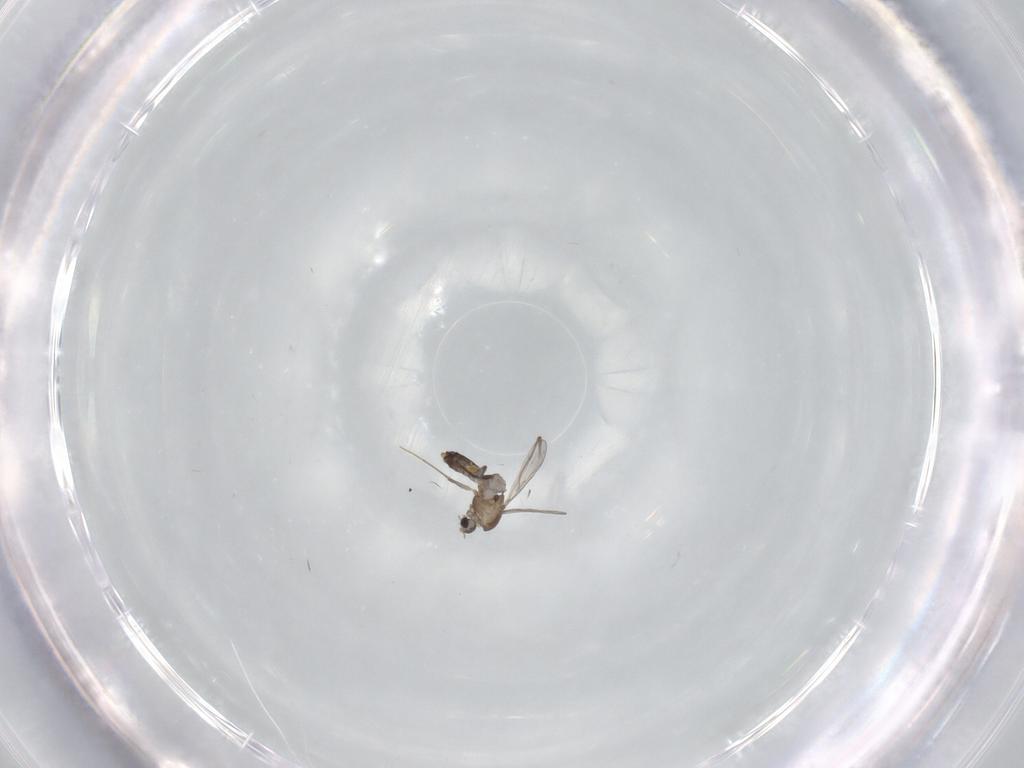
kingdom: Animalia
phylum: Arthropoda
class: Insecta
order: Diptera
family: Chironomidae
